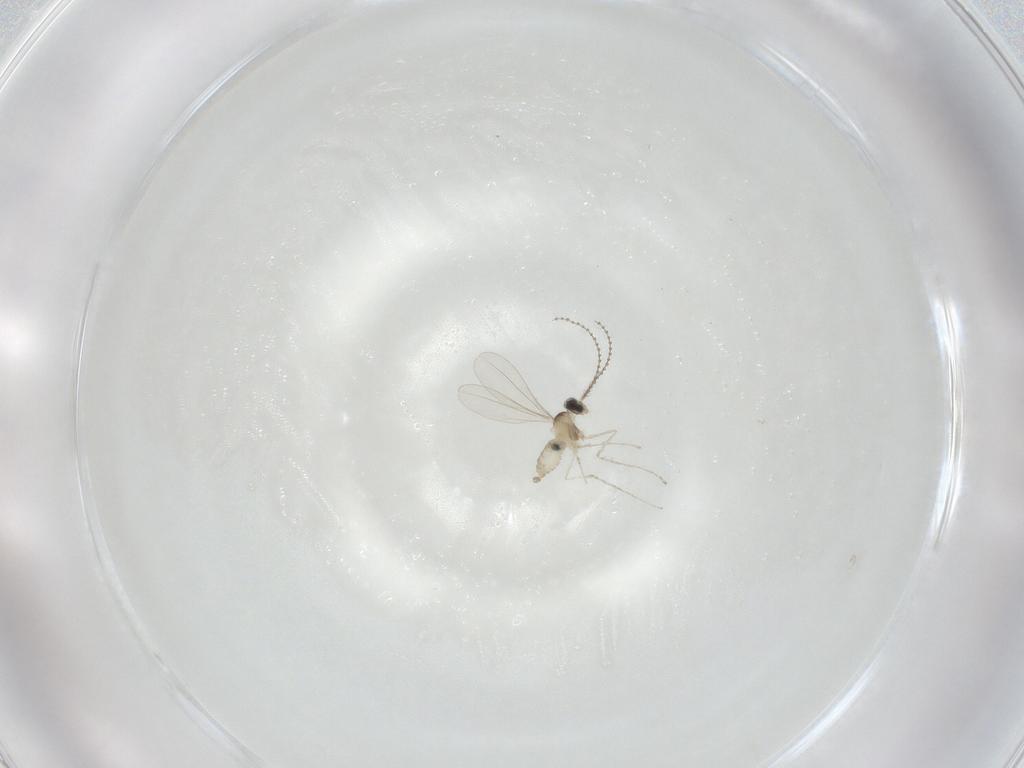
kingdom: Animalia
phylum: Arthropoda
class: Insecta
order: Diptera
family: Cecidomyiidae
